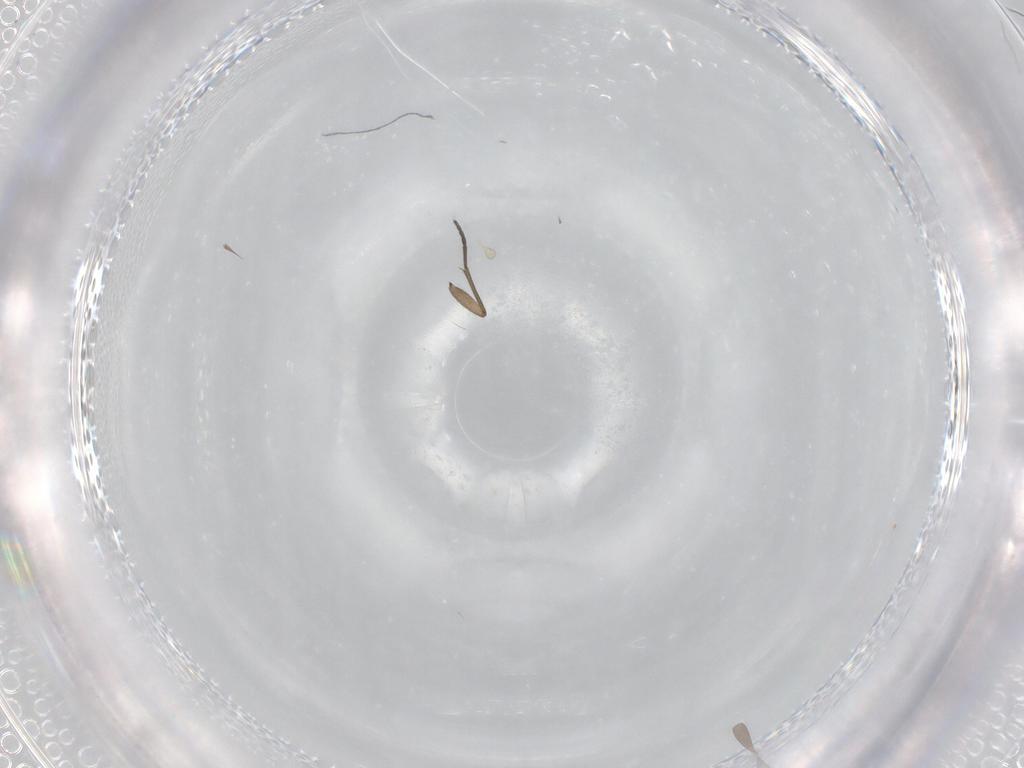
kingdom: Animalia
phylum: Arthropoda
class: Insecta
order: Diptera
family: Sciaridae
